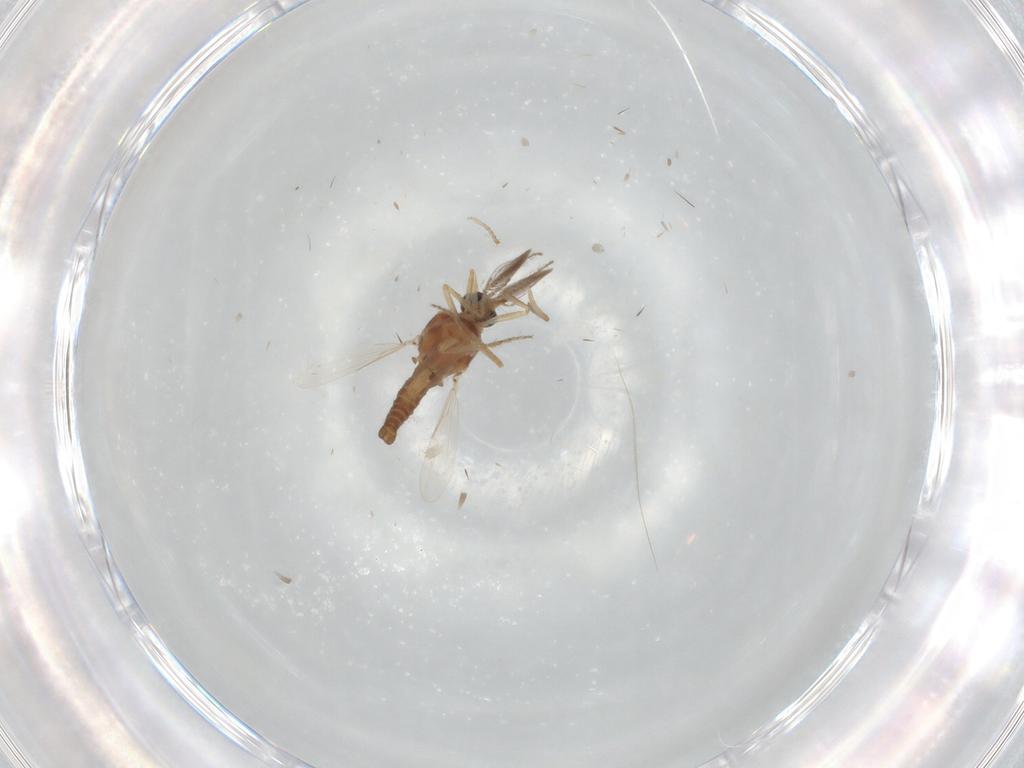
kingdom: Animalia
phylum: Arthropoda
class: Insecta
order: Diptera
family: Ceratopogonidae
